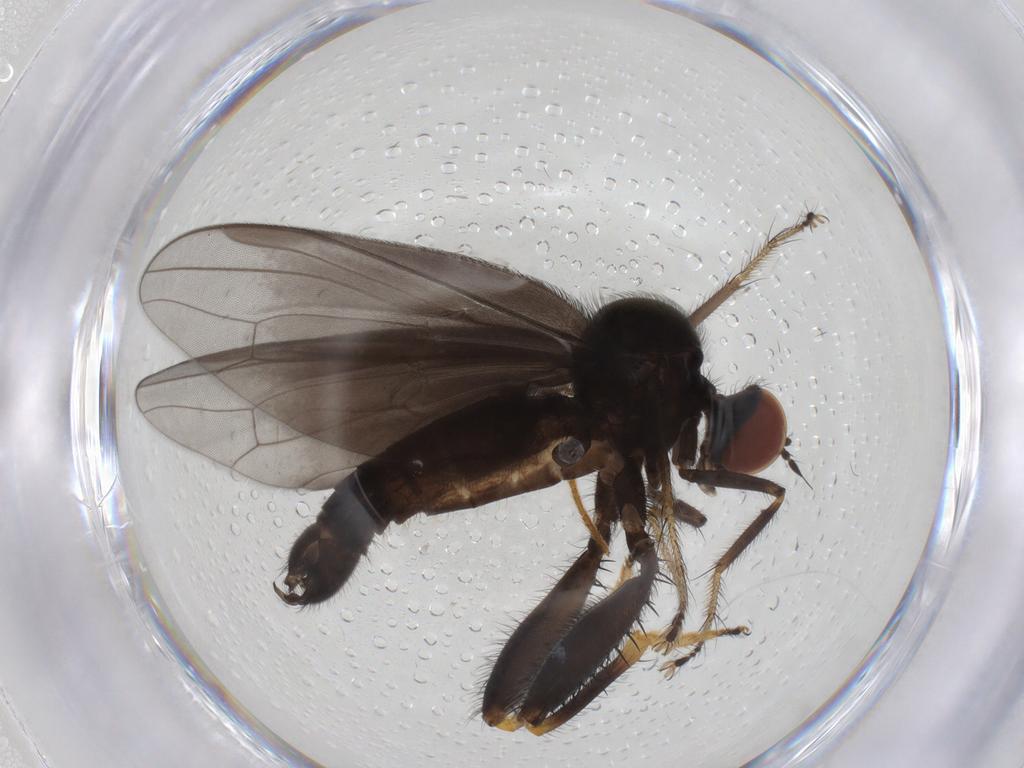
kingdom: Animalia
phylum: Arthropoda
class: Insecta
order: Diptera
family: Hybotidae
